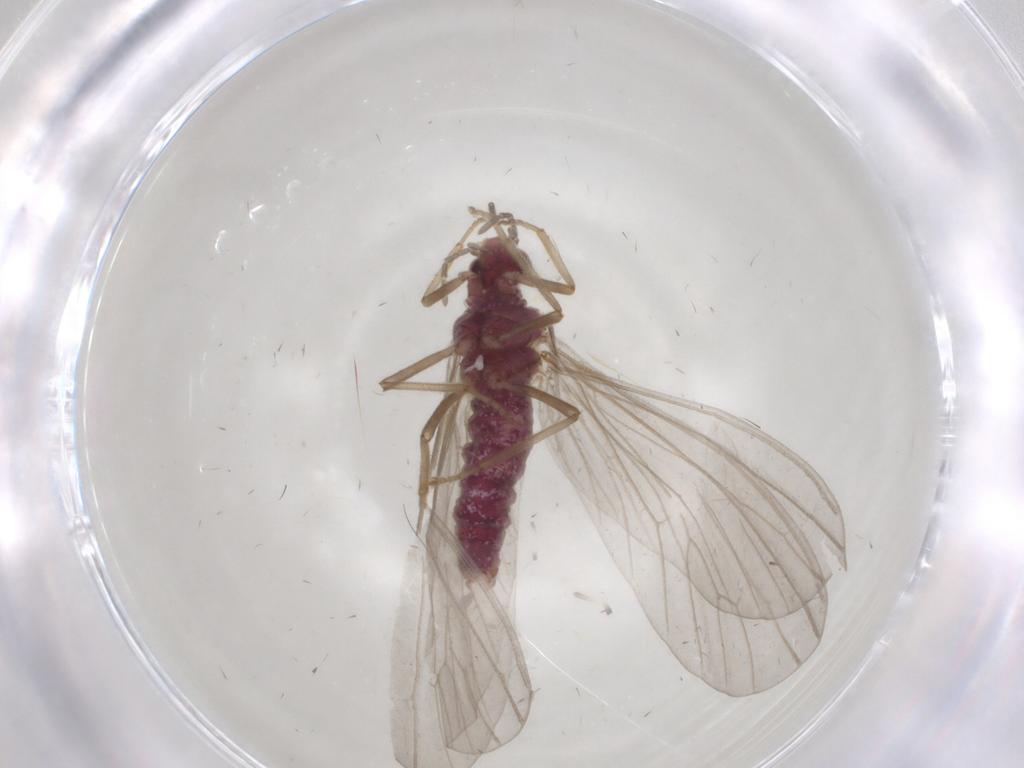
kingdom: Animalia
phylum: Arthropoda
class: Insecta
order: Neuroptera
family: Coniopterygidae
